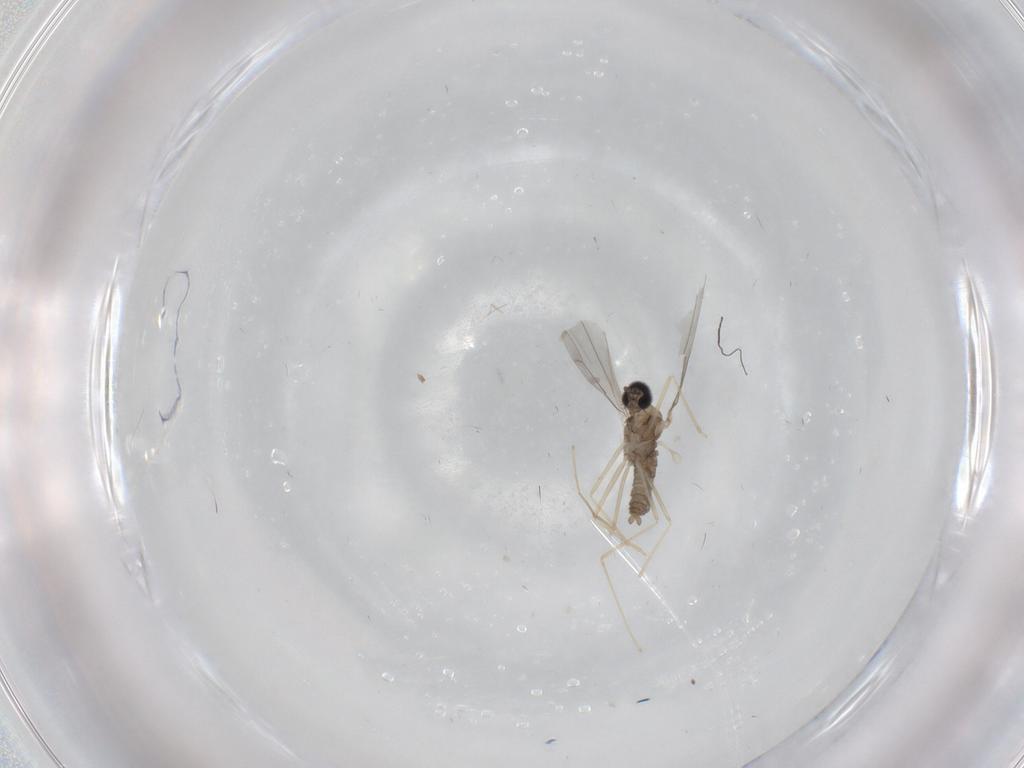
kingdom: Animalia
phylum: Arthropoda
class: Insecta
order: Diptera
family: Cecidomyiidae
